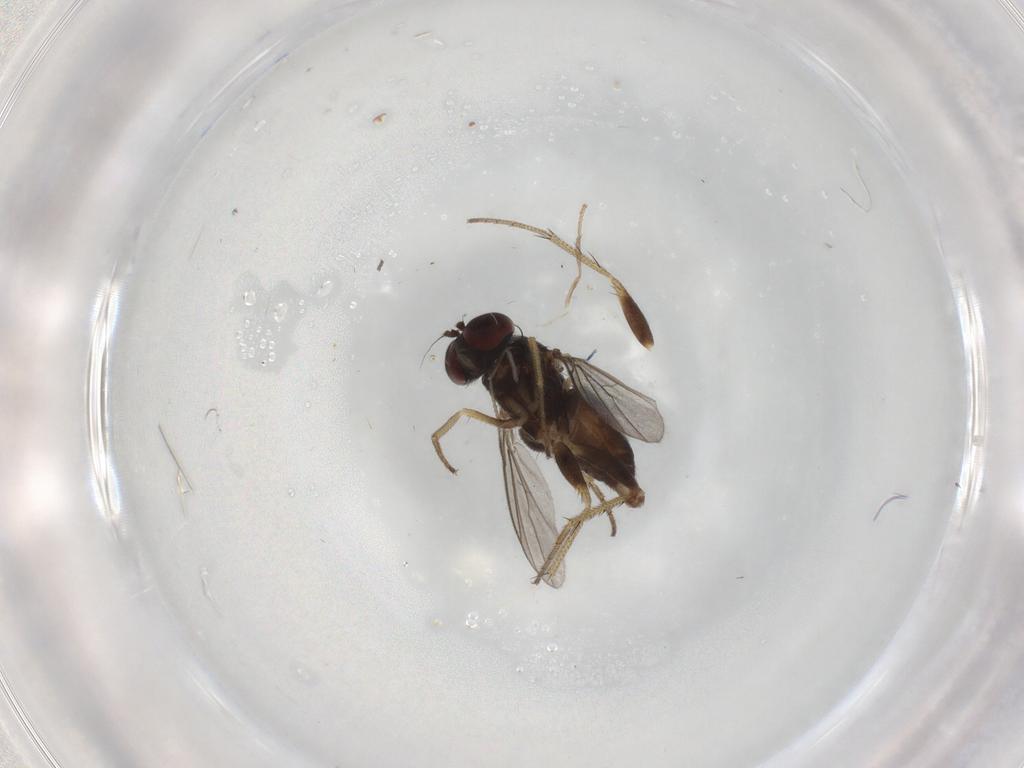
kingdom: Animalia
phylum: Arthropoda
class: Insecta
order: Diptera
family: Dolichopodidae
